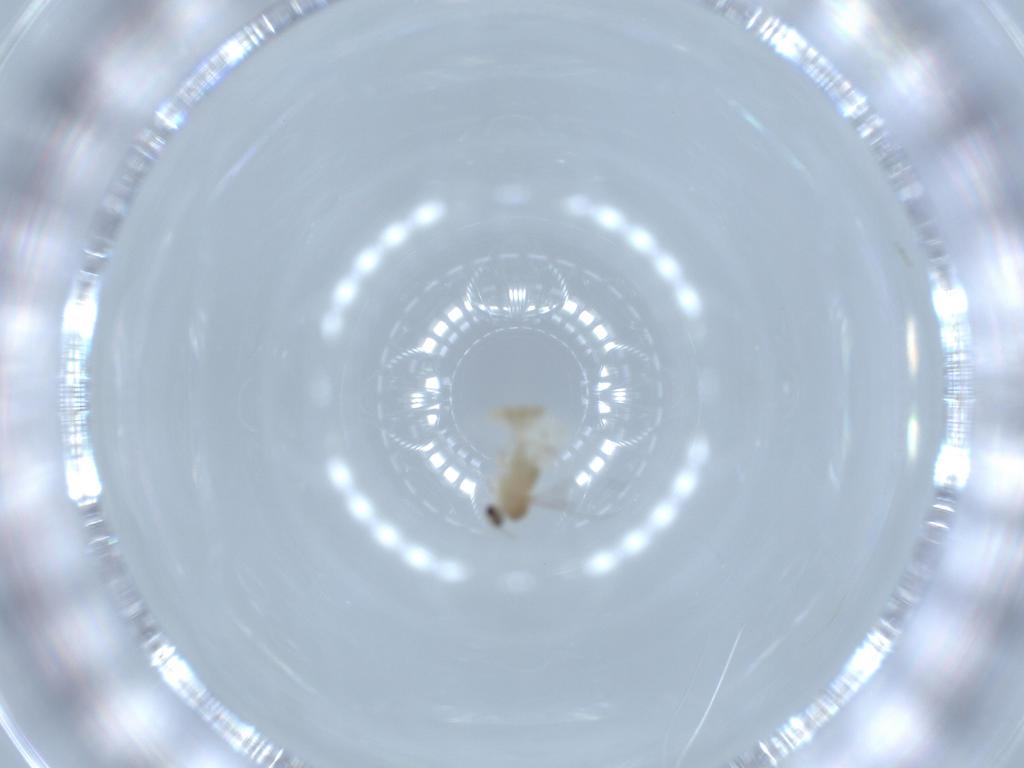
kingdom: Animalia
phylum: Arthropoda
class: Insecta
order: Diptera
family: Cecidomyiidae
